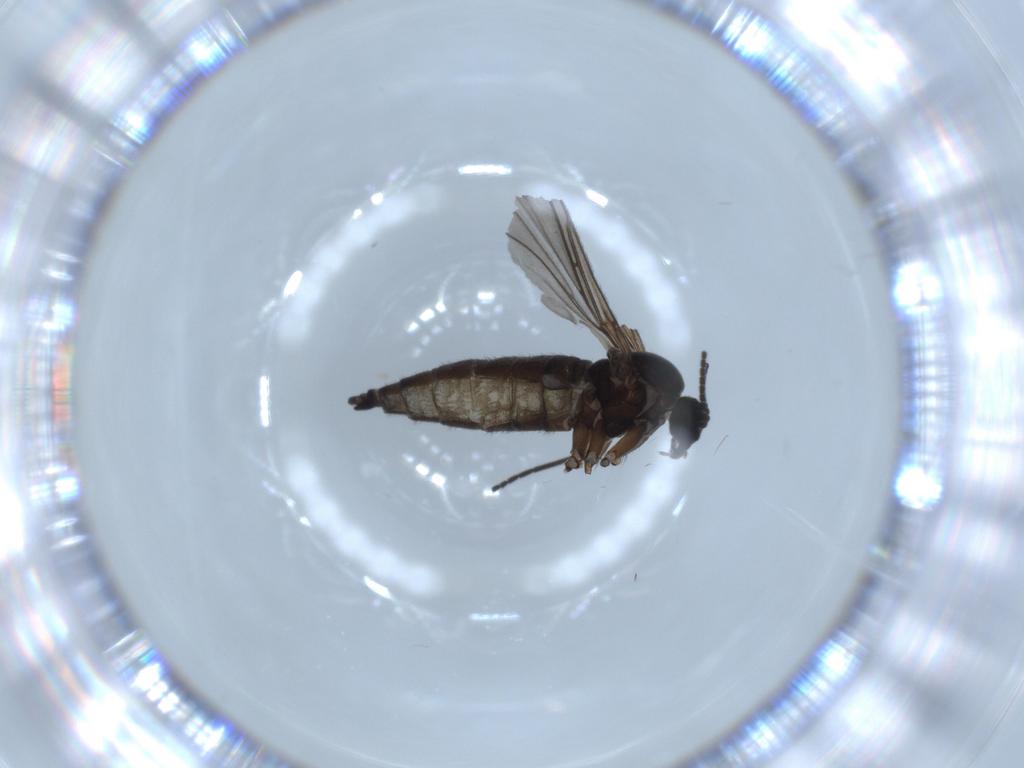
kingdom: Animalia
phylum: Arthropoda
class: Insecta
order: Diptera
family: Sciaridae
